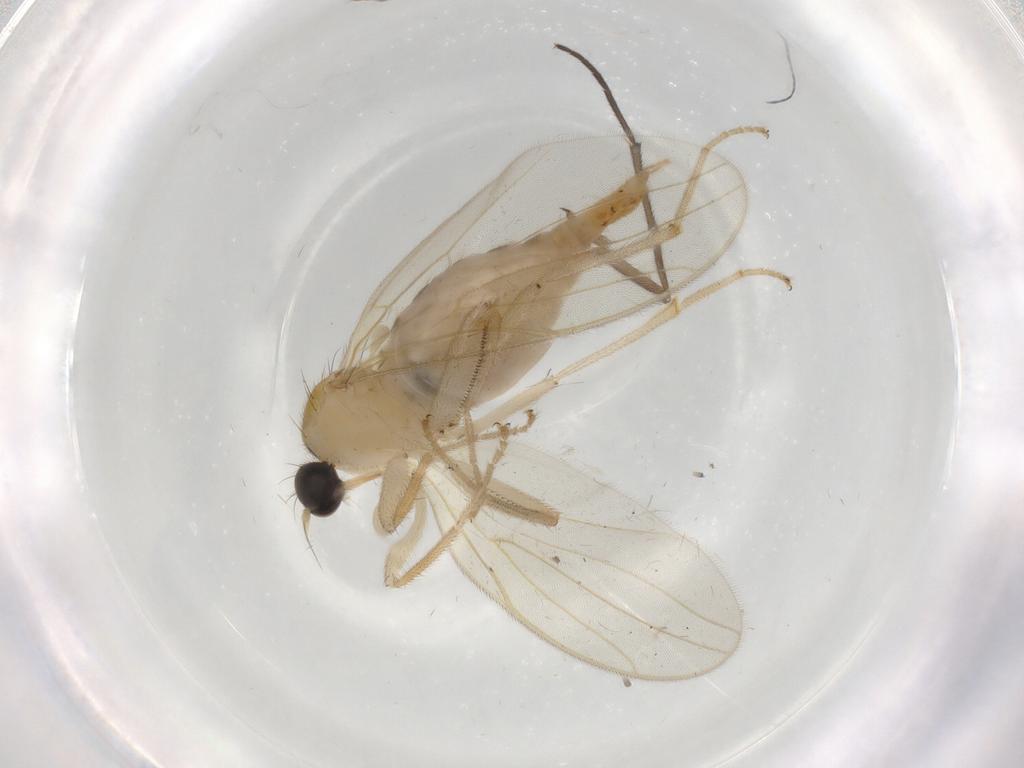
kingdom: Animalia
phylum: Arthropoda
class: Insecta
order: Diptera
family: Hybotidae
